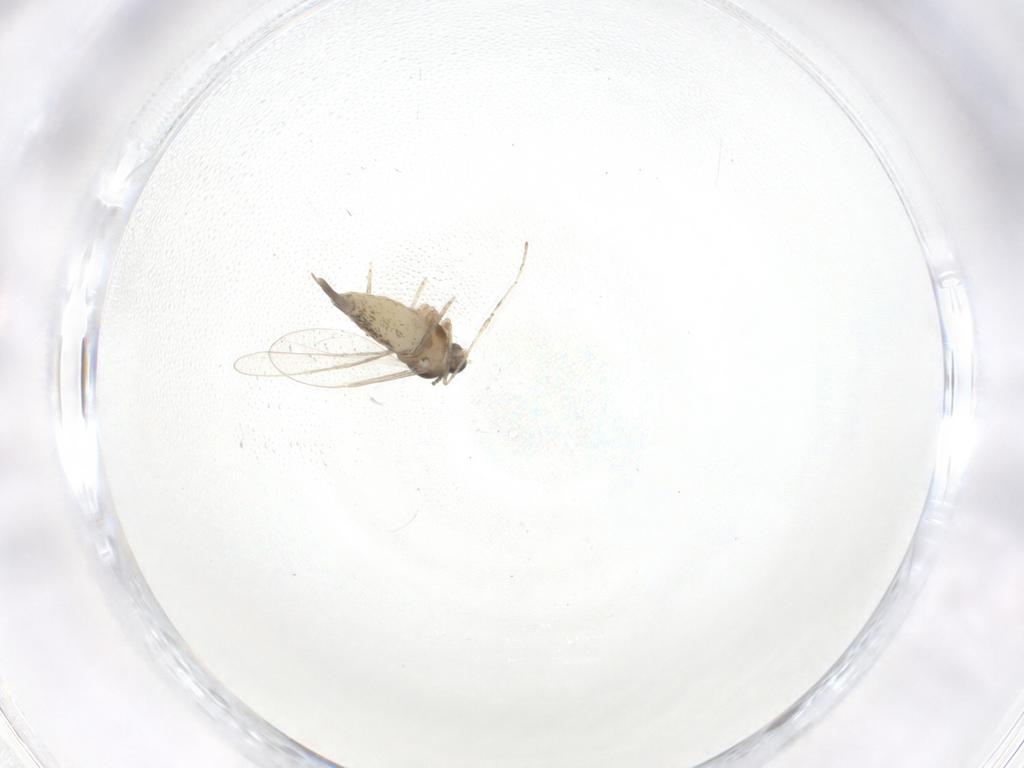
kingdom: Animalia
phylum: Arthropoda
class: Insecta
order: Diptera
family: Cecidomyiidae
